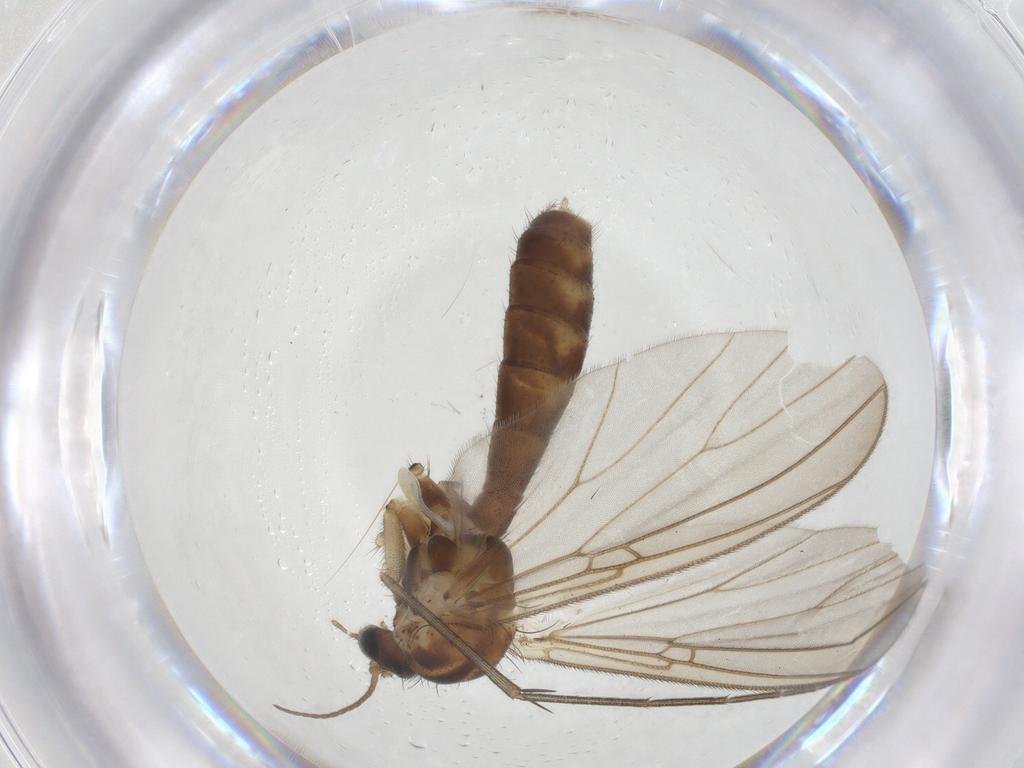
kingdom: Animalia
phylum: Arthropoda
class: Insecta
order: Diptera
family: Mycetophilidae
